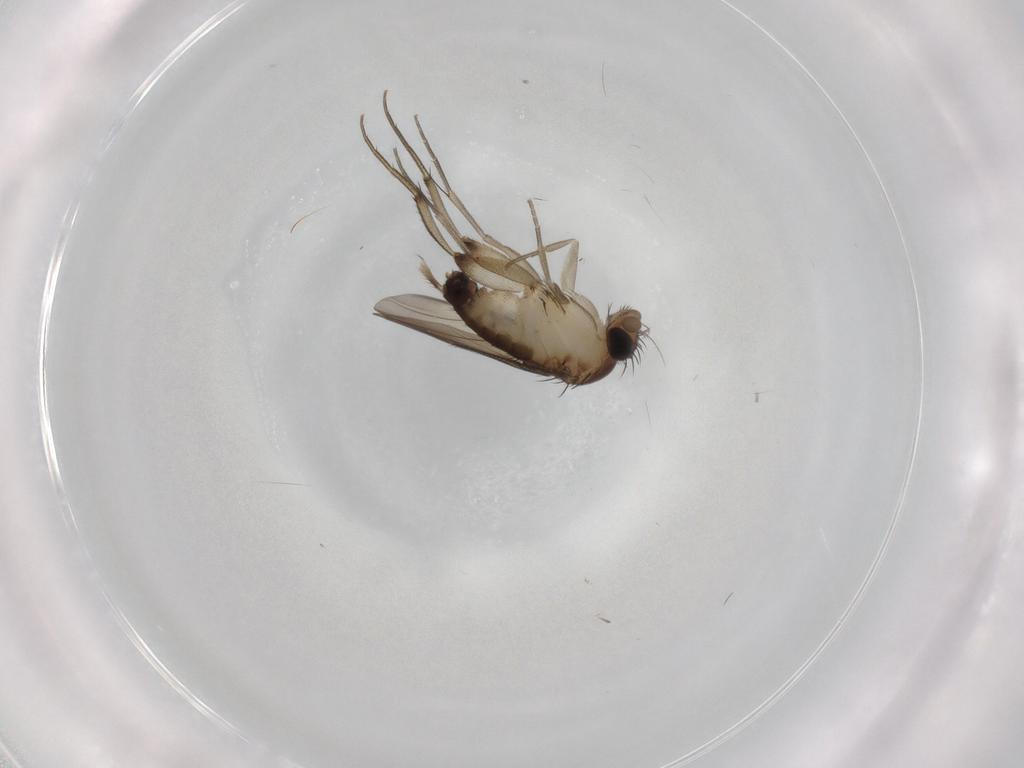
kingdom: Animalia
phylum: Arthropoda
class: Insecta
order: Diptera
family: Phoridae
